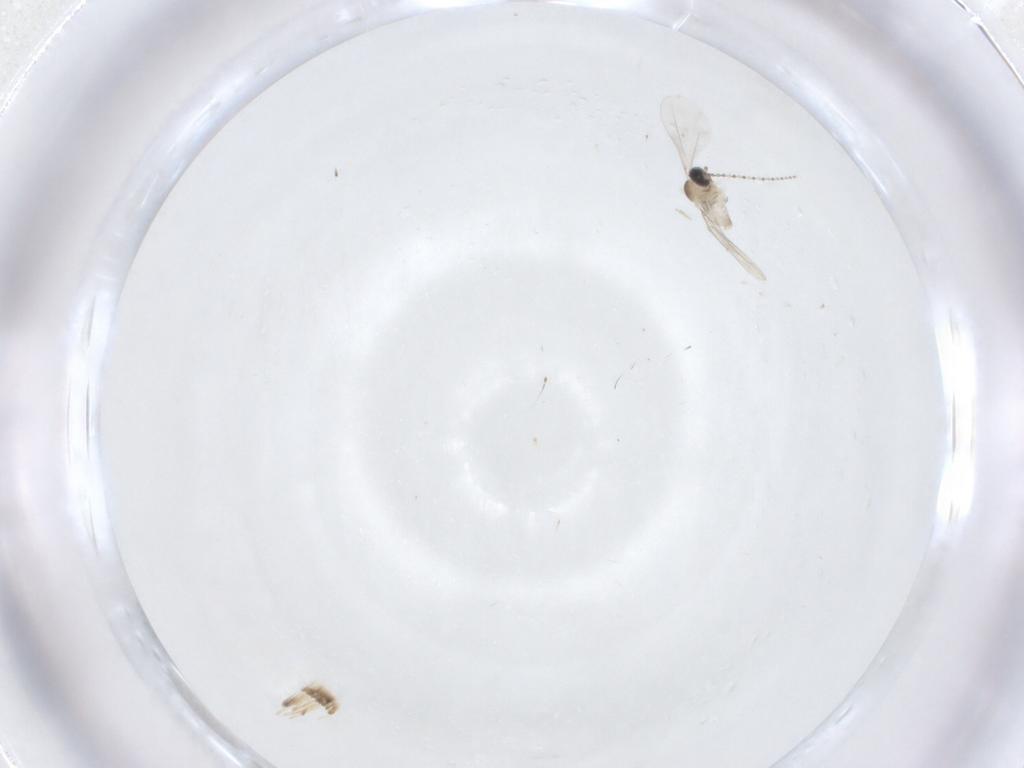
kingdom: Animalia
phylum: Arthropoda
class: Insecta
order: Diptera
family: Cecidomyiidae
